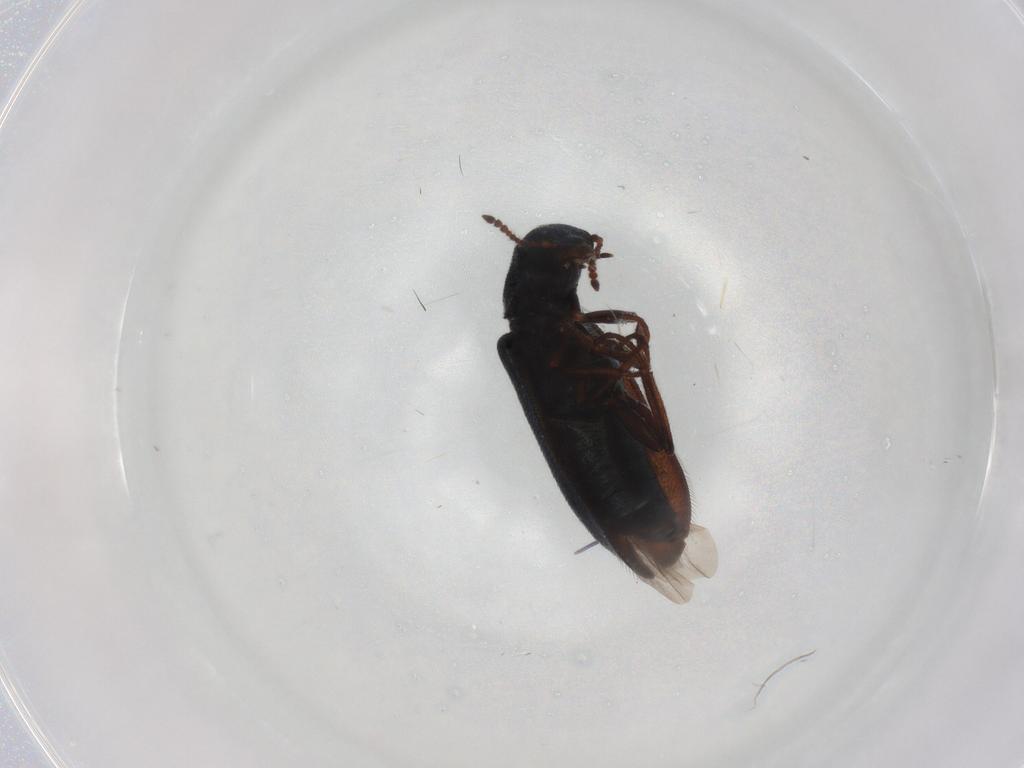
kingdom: Animalia
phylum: Arthropoda
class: Insecta
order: Coleoptera
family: Melyridae
